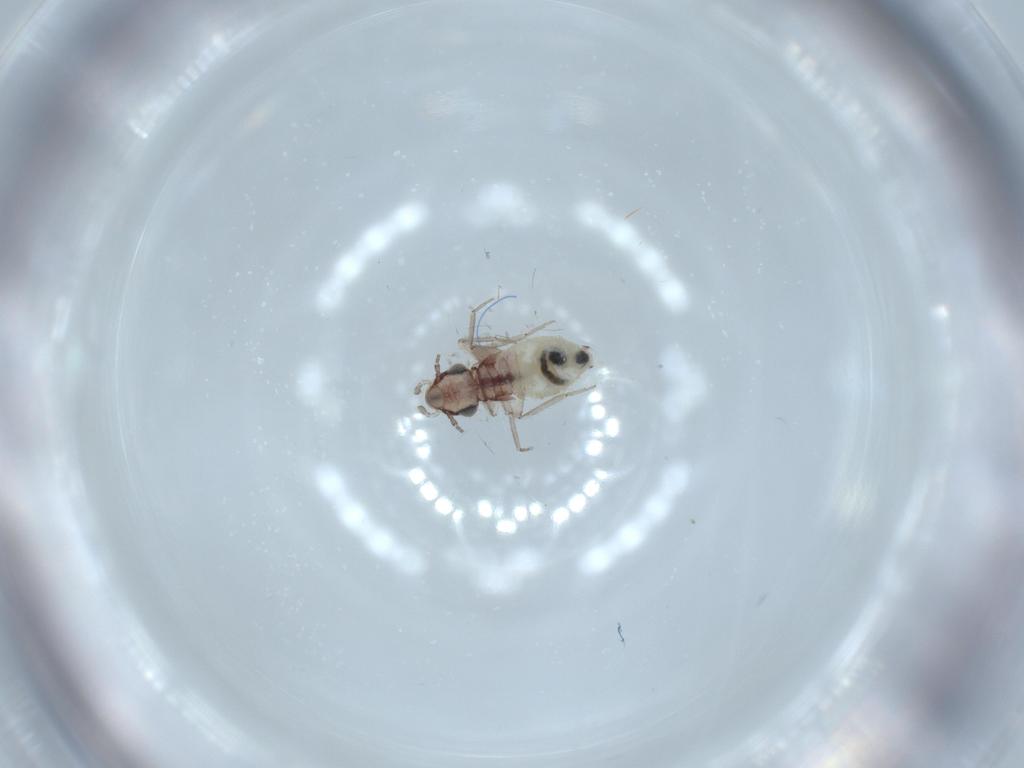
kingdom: Animalia
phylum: Arthropoda
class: Insecta
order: Psocodea
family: Lepidopsocidae
